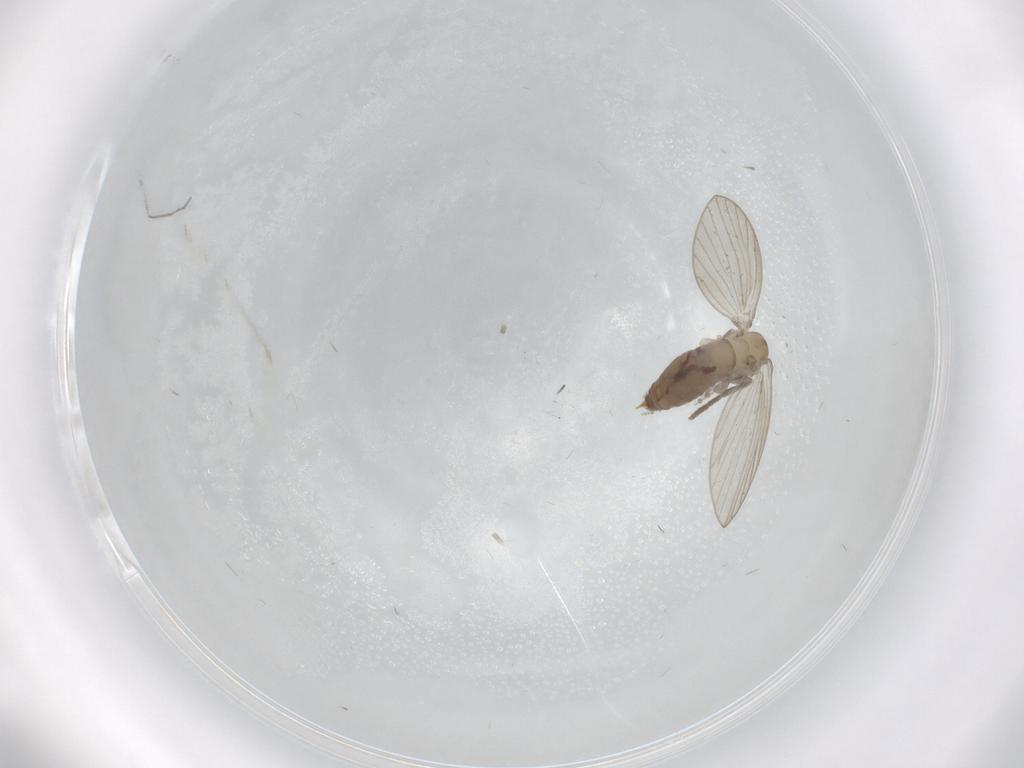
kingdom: Animalia
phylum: Arthropoda
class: Insecta
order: Diptera
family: Psychodidae
